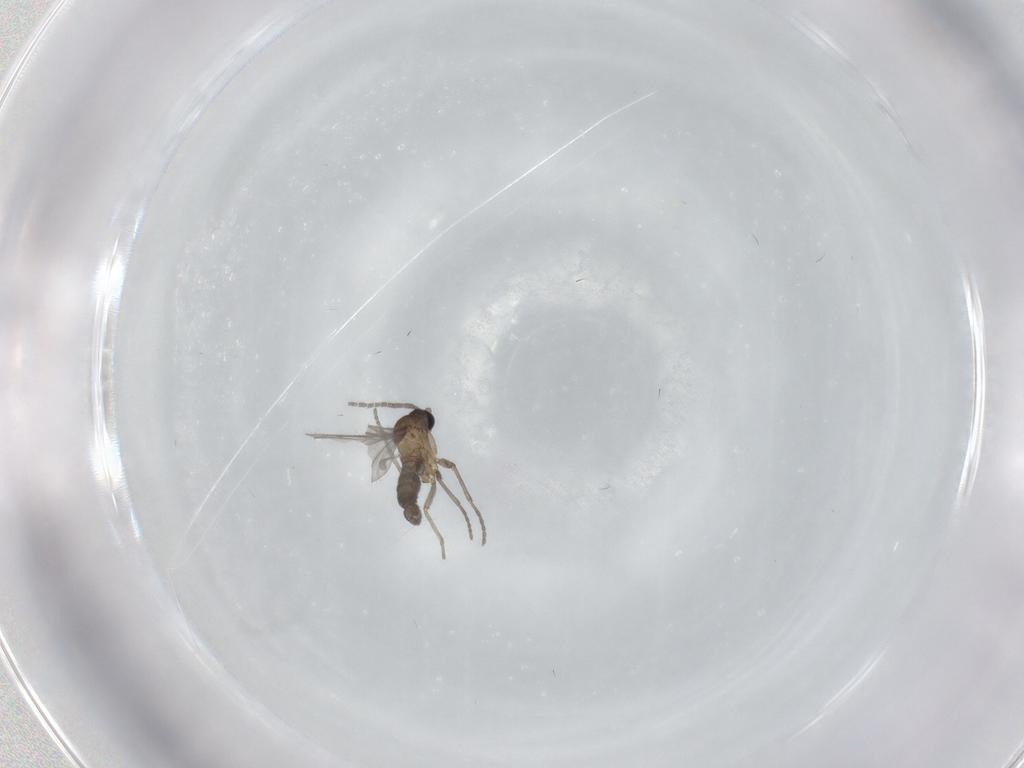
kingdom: Animalia
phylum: Arthropoda
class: Insecta
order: Diptera
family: Sciaridae
